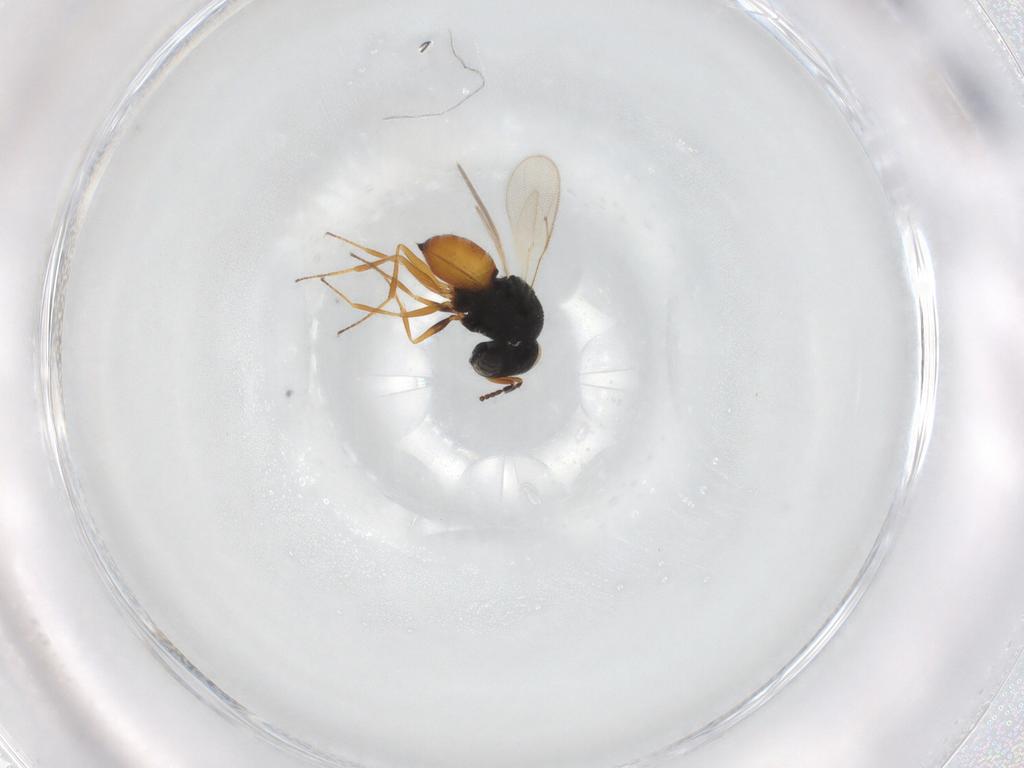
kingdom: Animalia
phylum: Arthropoda
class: Insecta
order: Hymenoptera
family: Scelionidae
